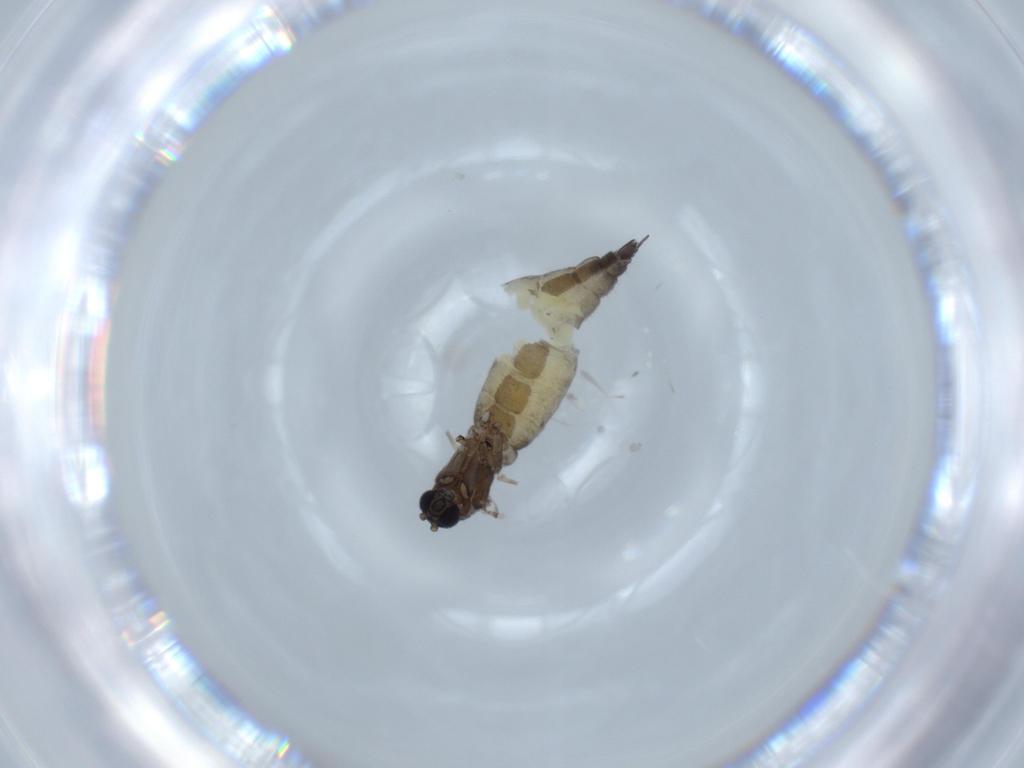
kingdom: Animalia
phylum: Arthropoda
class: Insecta
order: Diptera
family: Sciaridae
